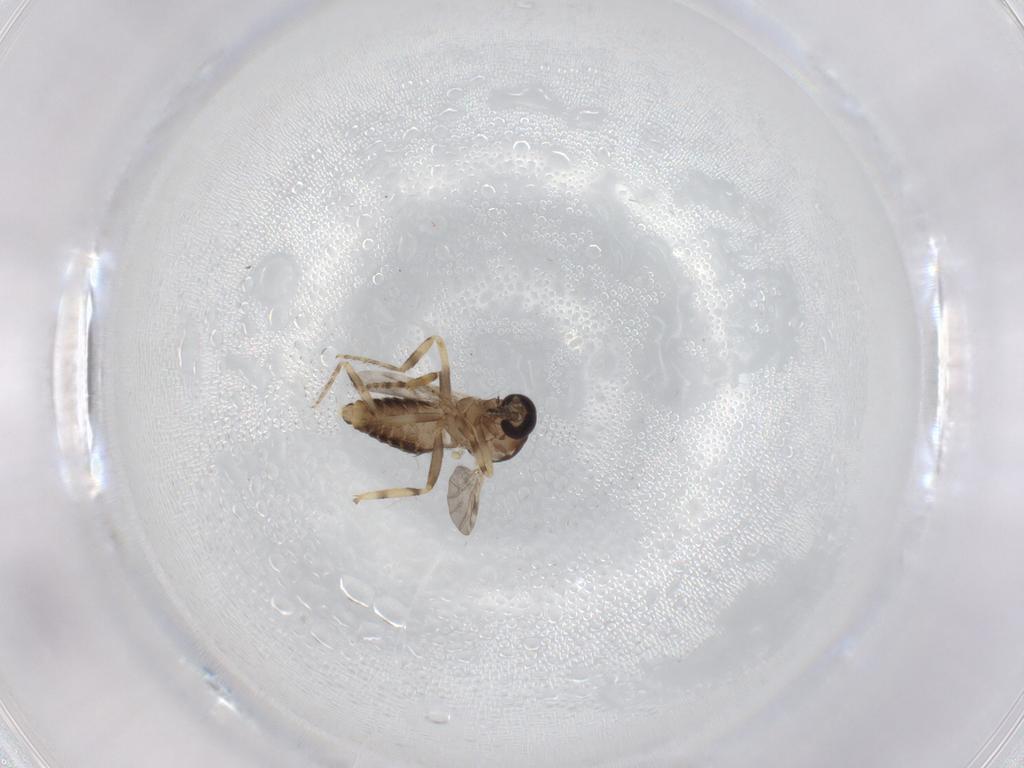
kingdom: Animalia
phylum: Arthropoda
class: Insecta
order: Diptera
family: Ceratopogonidae
